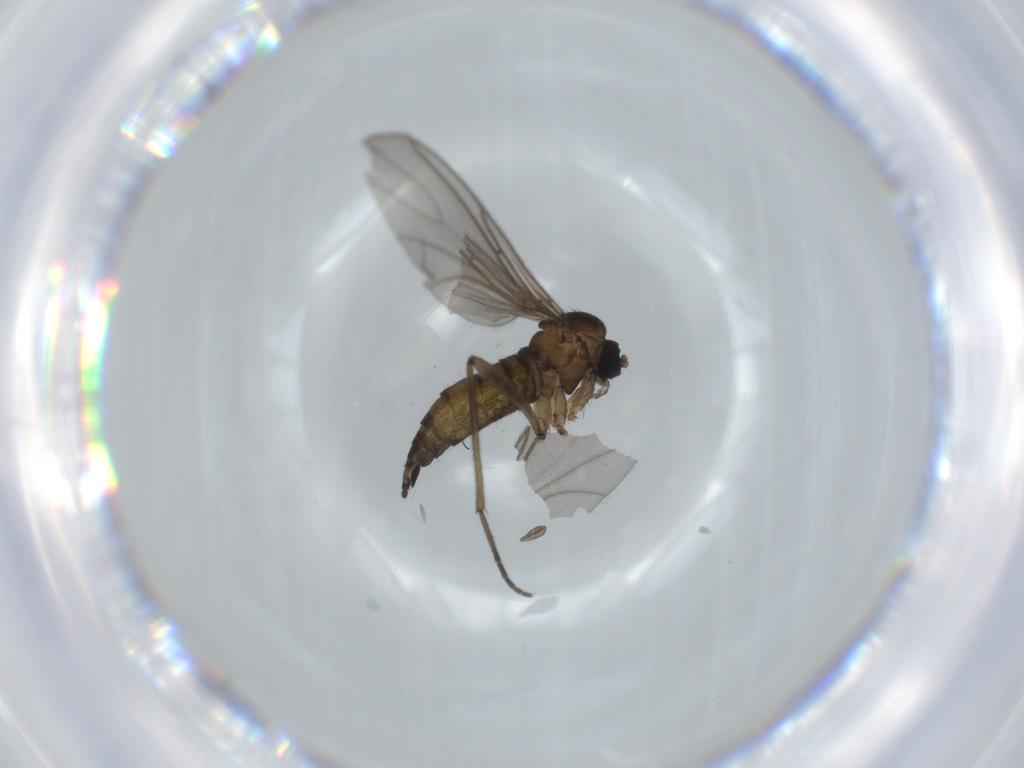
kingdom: Animalia
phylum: Arthropoda
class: Insecta
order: Diptera
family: Sciaridae
